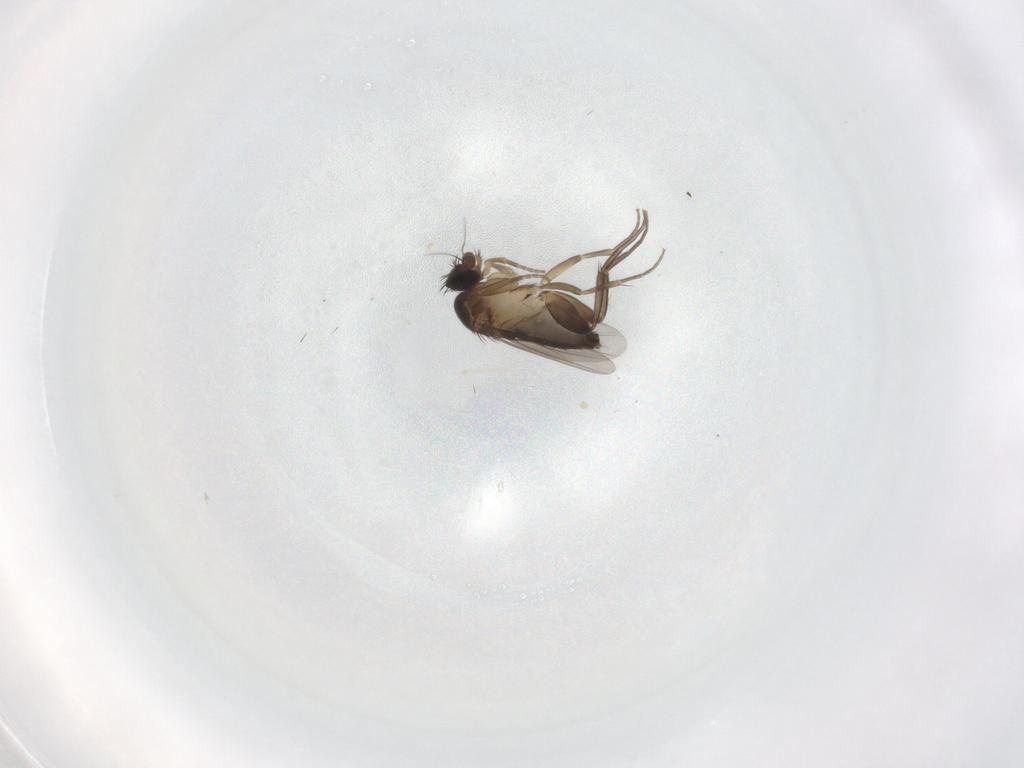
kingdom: Animalia
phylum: Arthropoda
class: Insecta
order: Diptera
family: Phoridae
